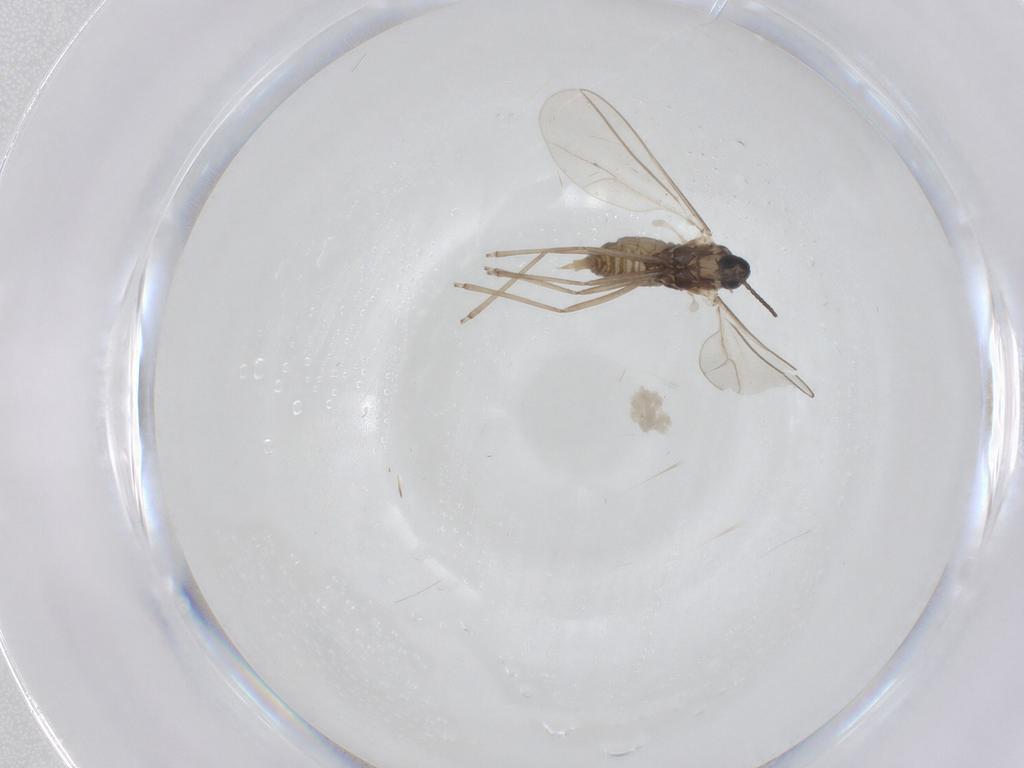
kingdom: Animalia
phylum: Arthropoda
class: Insecta
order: Diptera
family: Cecidomyiidae
